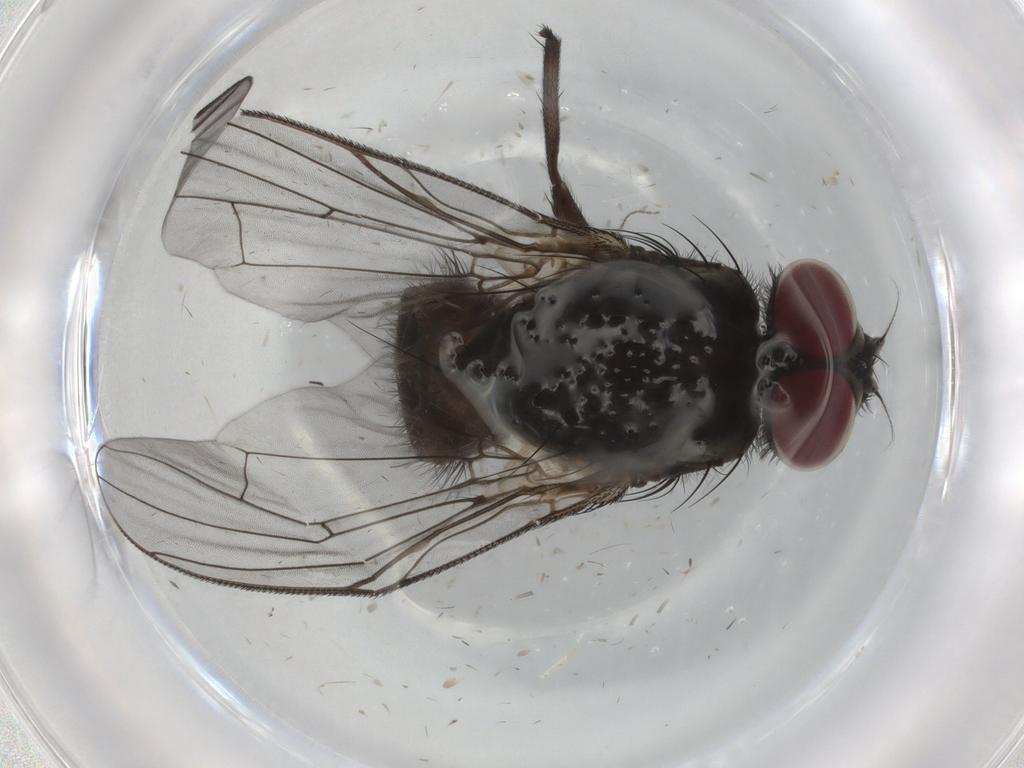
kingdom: Animalia
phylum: Arthropoda
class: Insecta
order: Diptera
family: Muscidae
